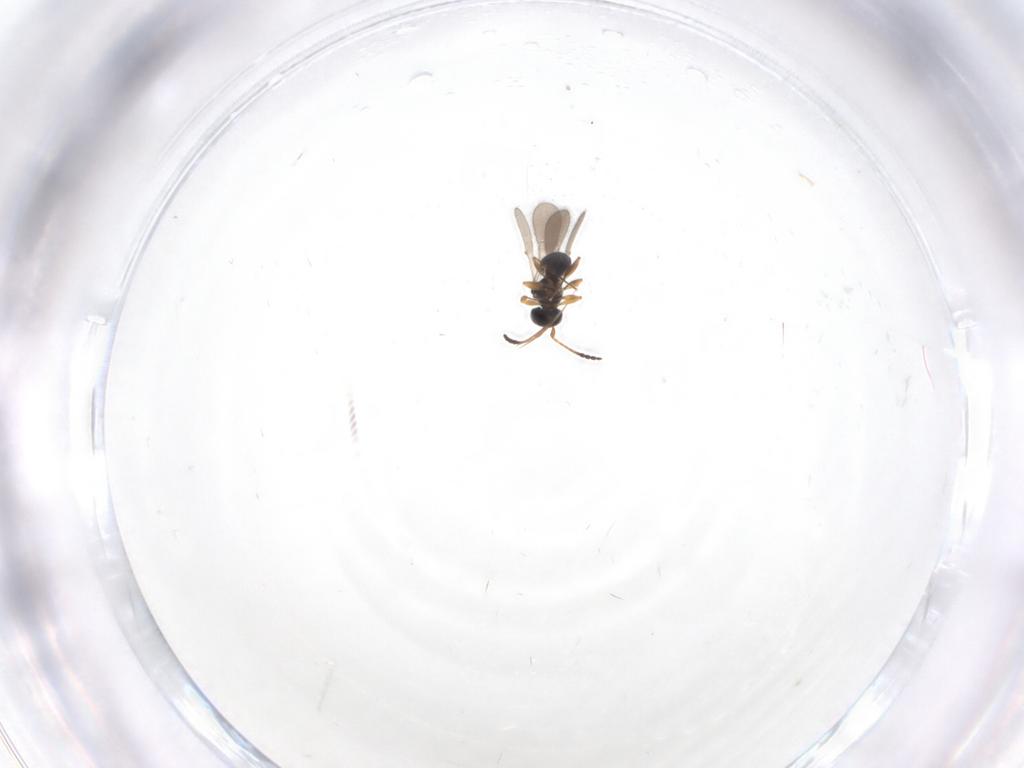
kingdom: Animalia
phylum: Arthropoda
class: Insecta
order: Hymenoptera
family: Scelionidae
